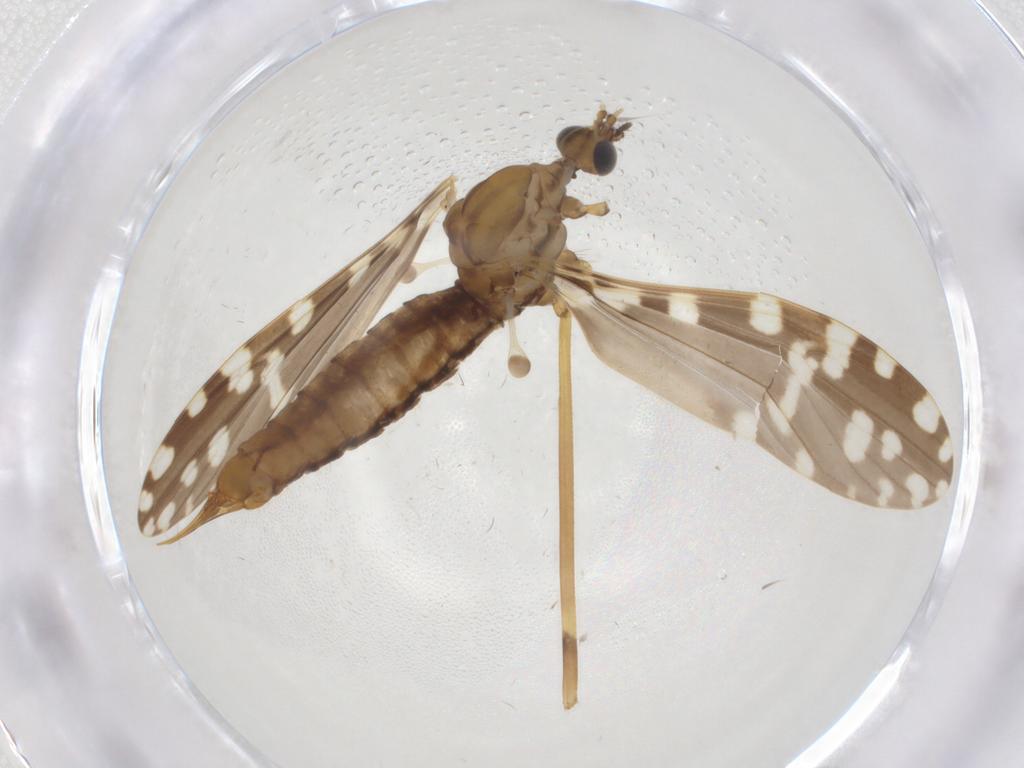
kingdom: Animalia
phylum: Arthropoda
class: Insecta
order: Diptera
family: Limoniidae
